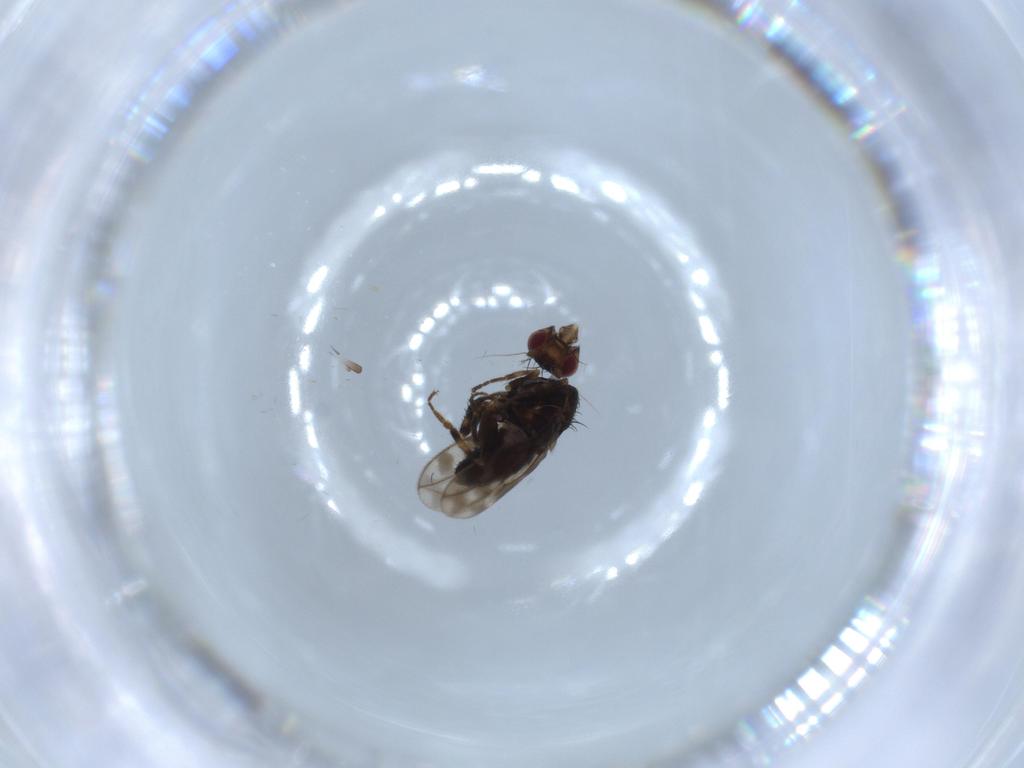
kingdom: Animalia
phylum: Arthropoda
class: Insecta
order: Diptera
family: Sphaeroceridae
